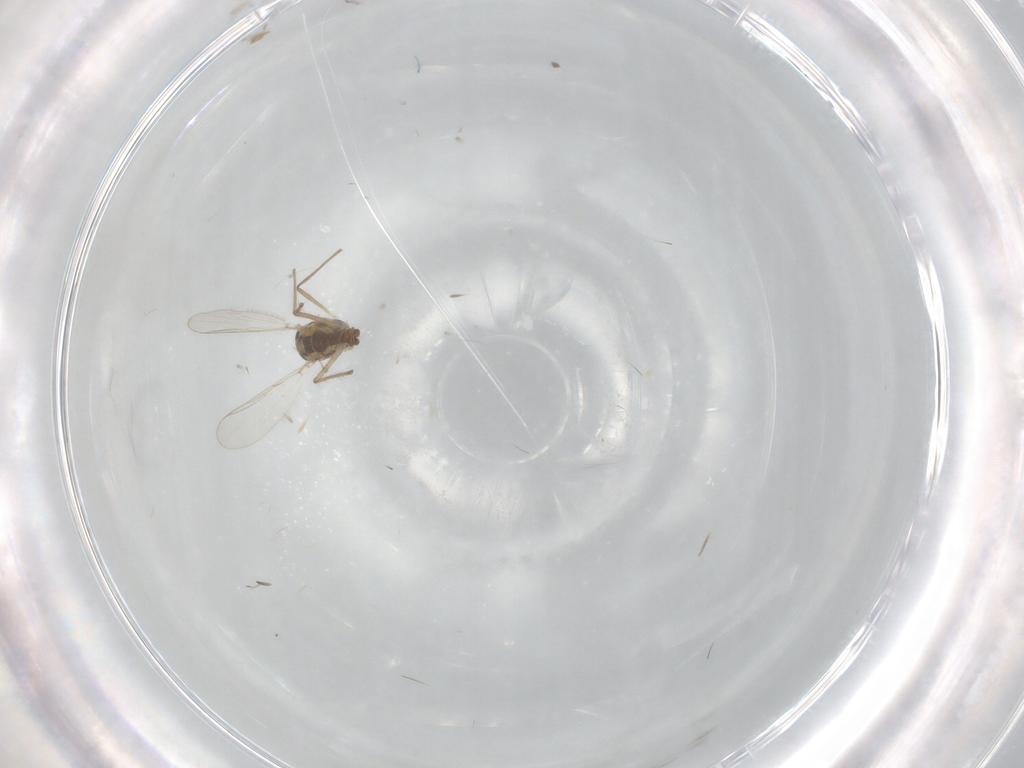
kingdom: Animalia
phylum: Arthropoda
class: Insecta
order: Diptera
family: Chironomidae
